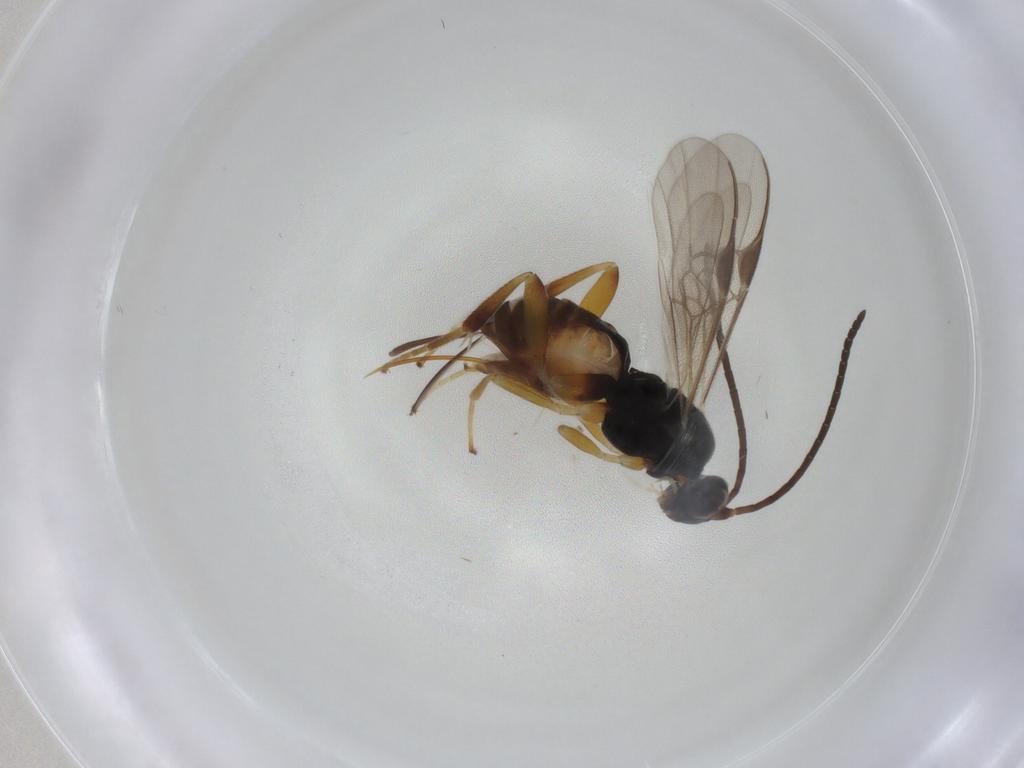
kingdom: Animalia
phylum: Arthropoda
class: Insecta
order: Hymenoptera
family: Braconidae
